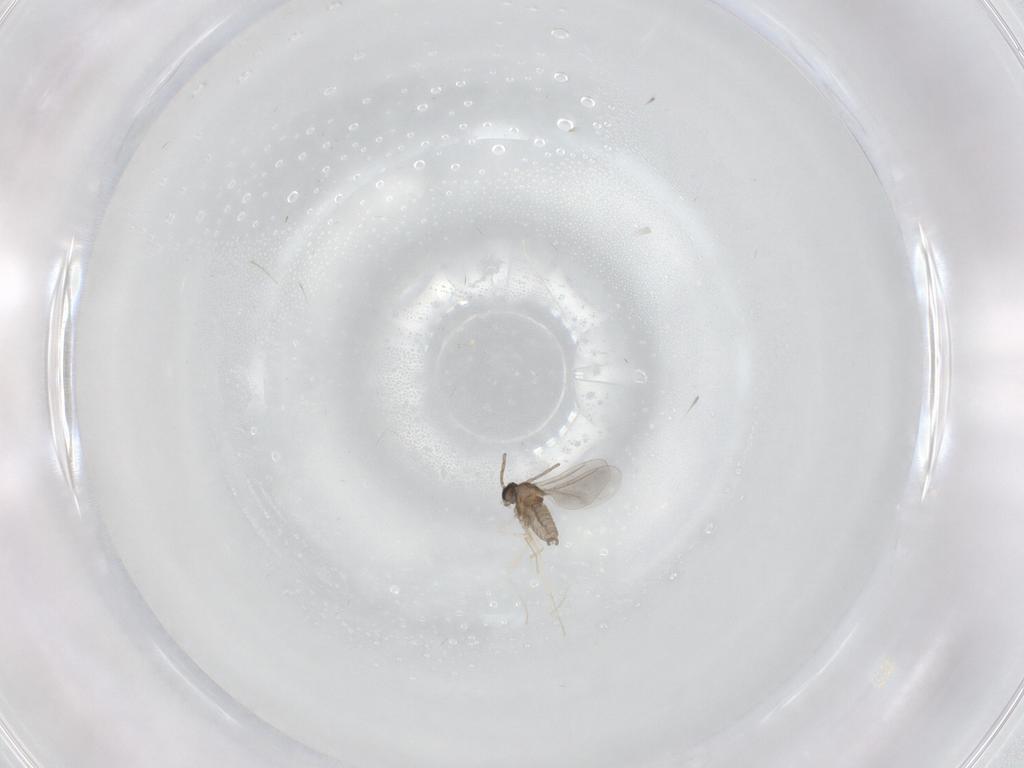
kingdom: Animalia
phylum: Arthropoda
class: Insecta
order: Diptera
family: Cecidomyiidae
